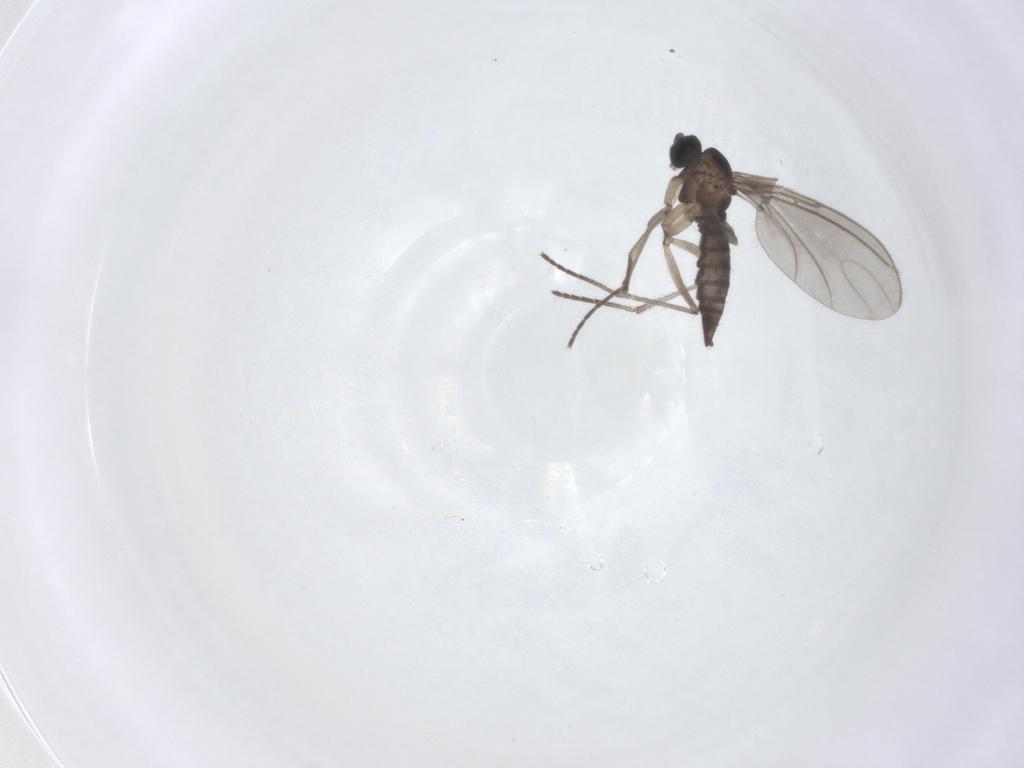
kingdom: Animalia
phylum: Arthropoda
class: Insecta
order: Diptera
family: Sciaridae
